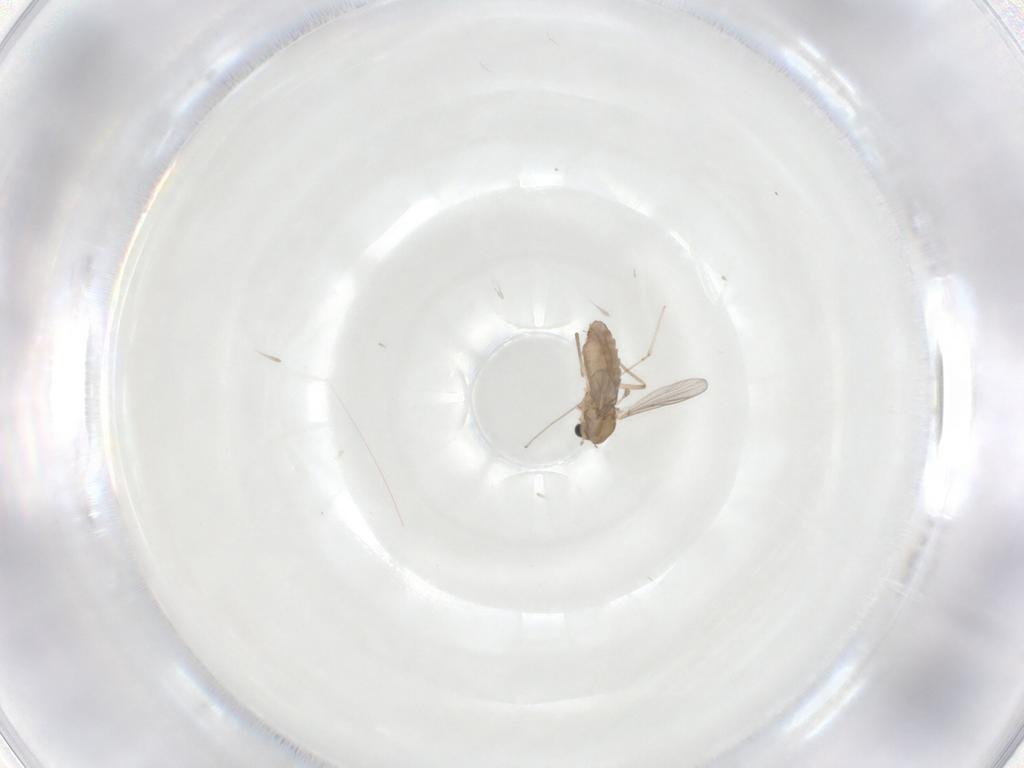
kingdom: Animalia
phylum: Arthropoda
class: Insecta
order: Diptera
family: Chironomidae
